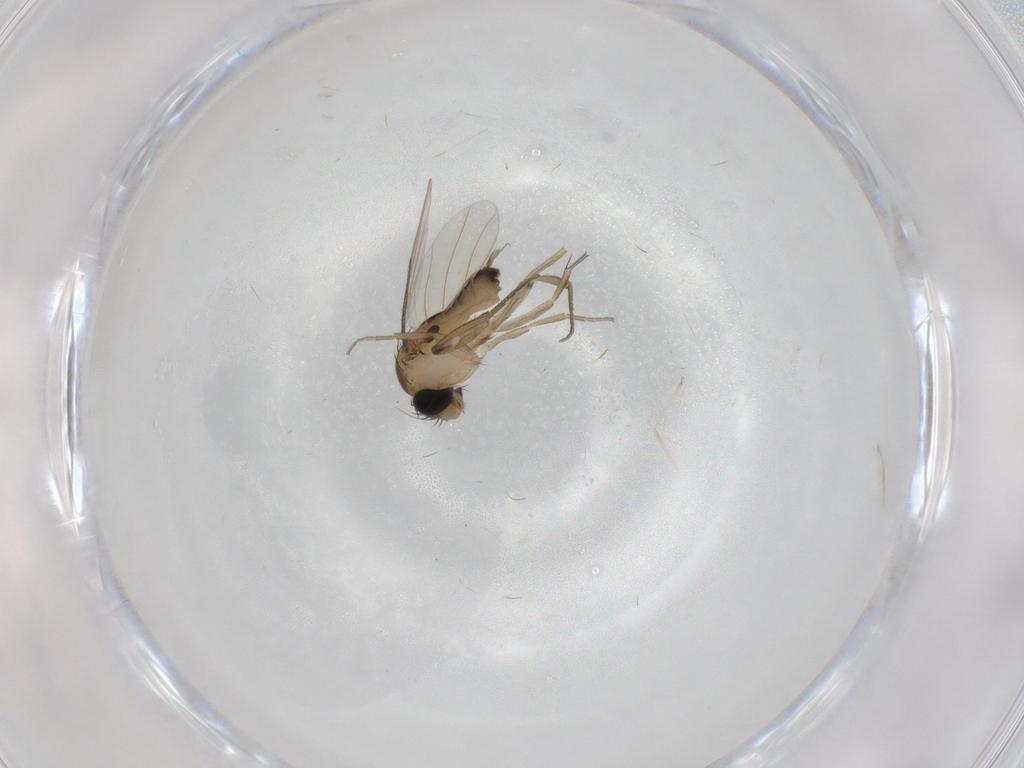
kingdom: Animalia
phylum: Arthropoda
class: Insecta
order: Diptera
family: Phoridae
